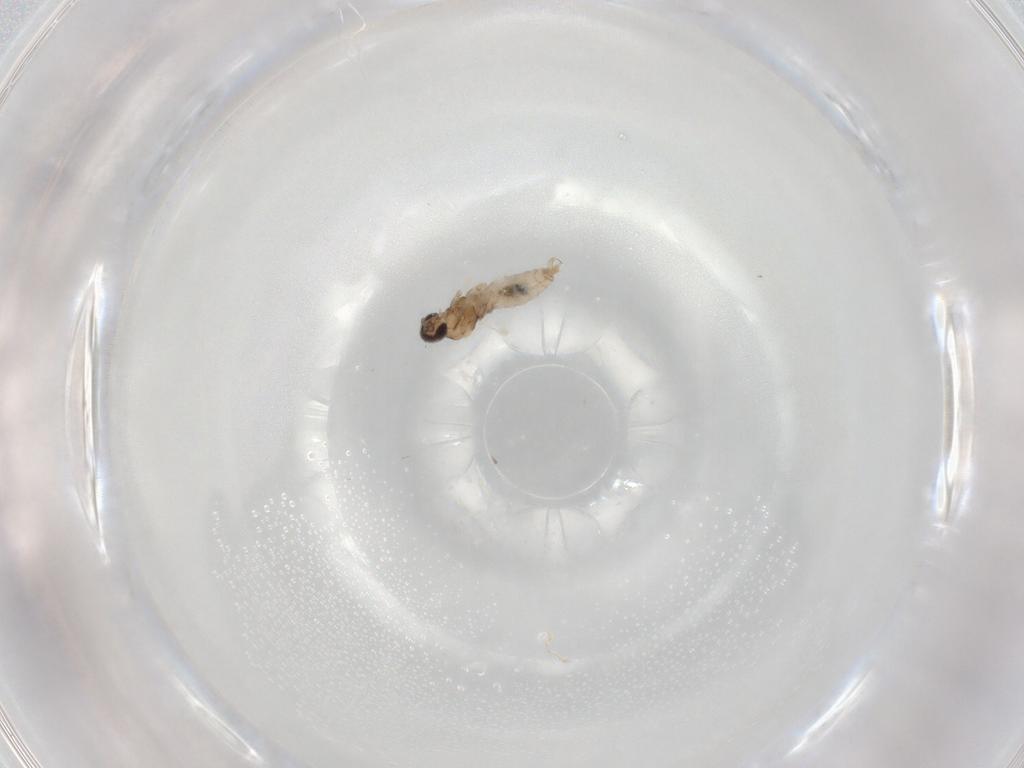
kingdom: Animalia
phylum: Arthropoda
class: Insecta
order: Diptera
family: Cecidomyiidae
